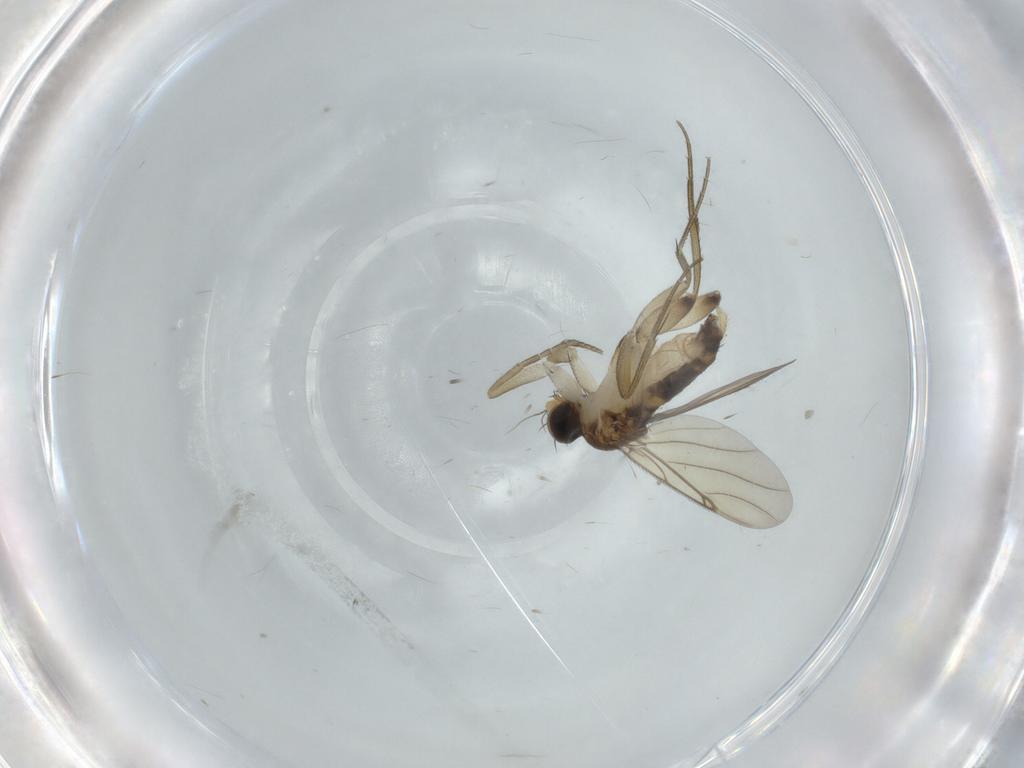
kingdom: Animalia
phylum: Arthropoda
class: Insecta
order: Diptera
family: Phoridae
